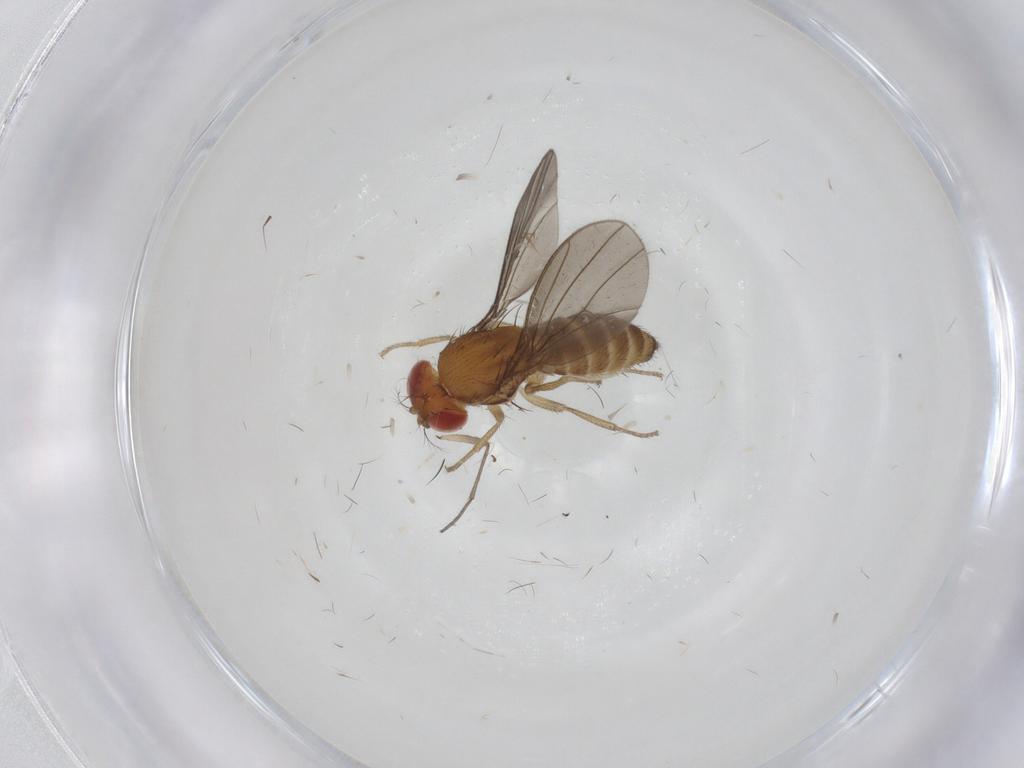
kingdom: Animalia
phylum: Arthropoda
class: Insecta
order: Diptera
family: Drosophilidae
